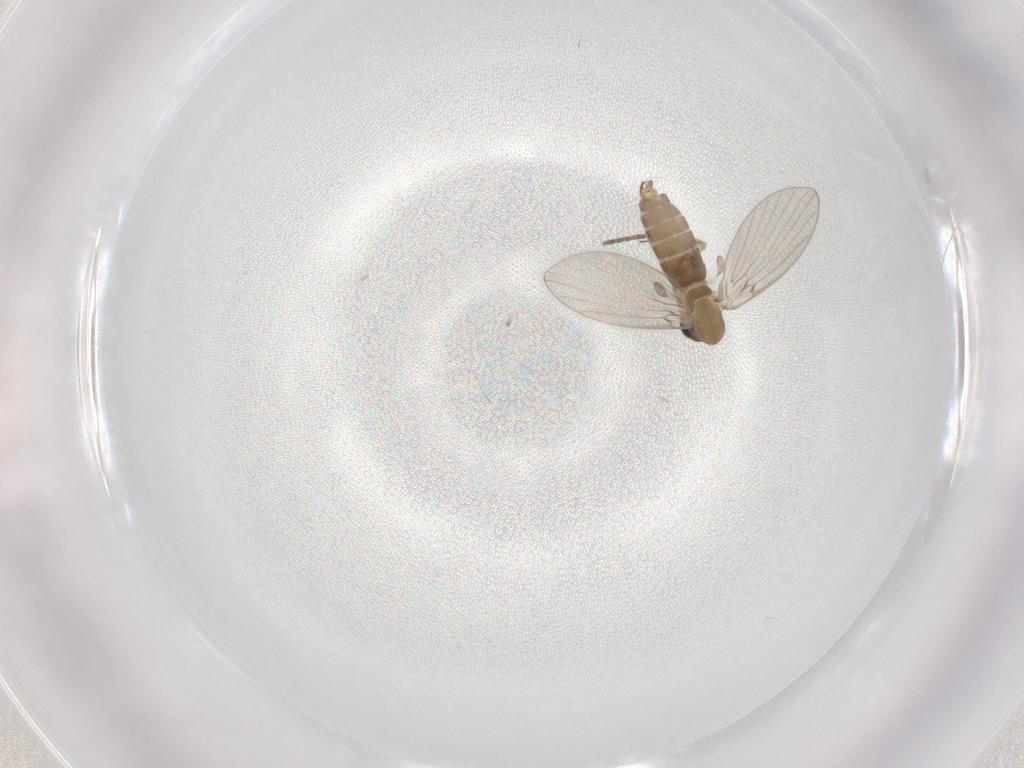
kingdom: Animalia
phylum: Arthropoda
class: Insecta
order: Diptera
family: Psychodidae
